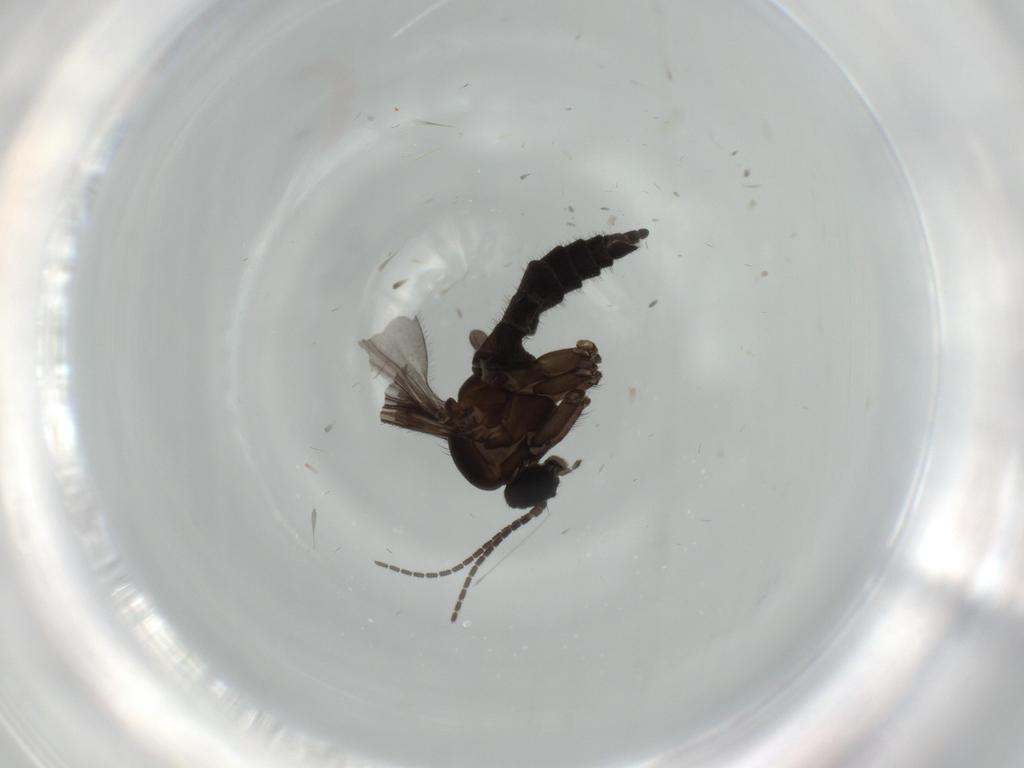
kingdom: Animalia
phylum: Arthropoda
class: Insecta
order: Diptera
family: Sciaridae
